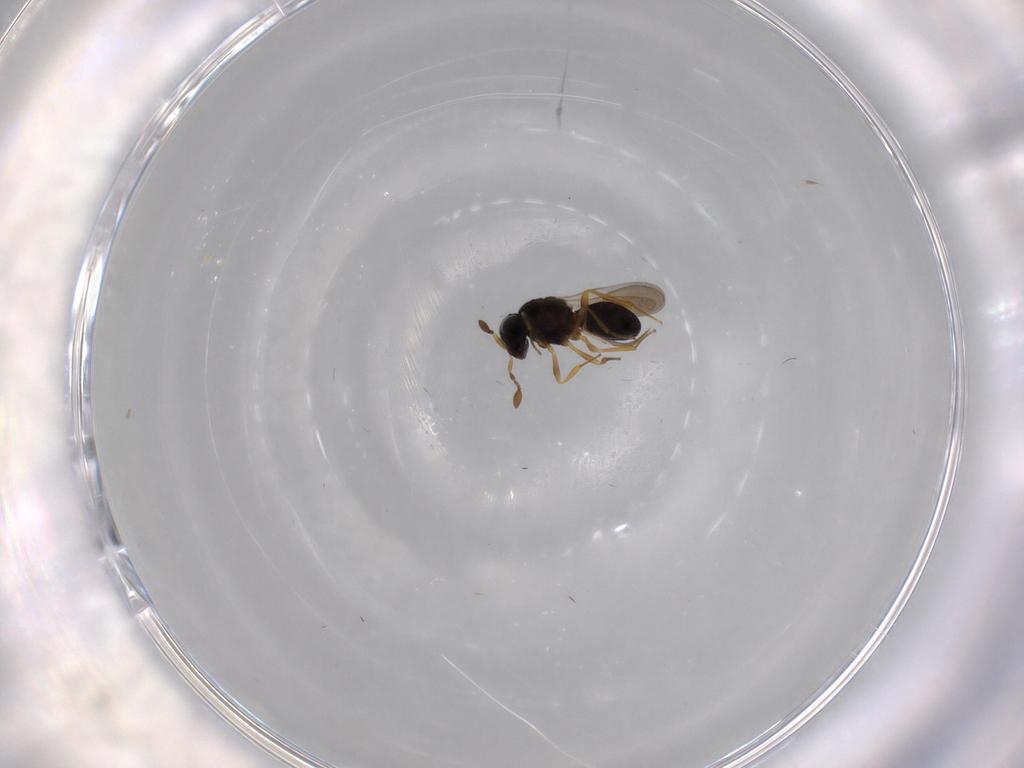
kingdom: Animalia
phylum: Arthropoda
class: Insecta
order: Hymenoptera
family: Scelionidae
